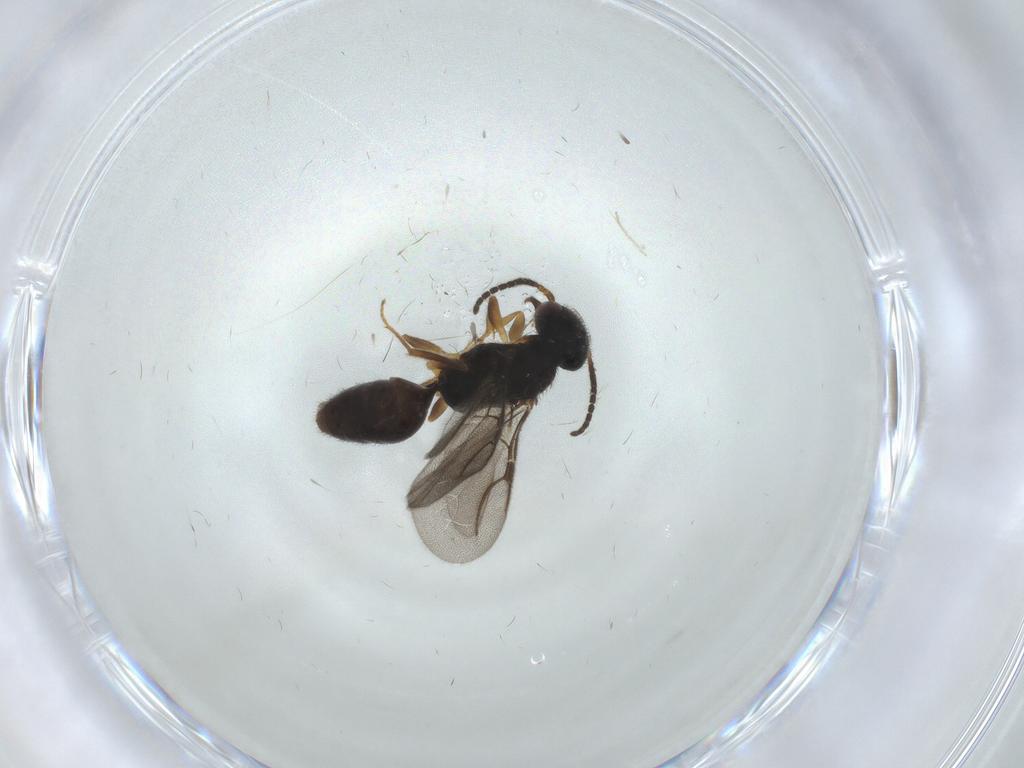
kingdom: Animalia
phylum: Arthropoda
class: Insecta
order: Hymenoptera
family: Bethylidae
